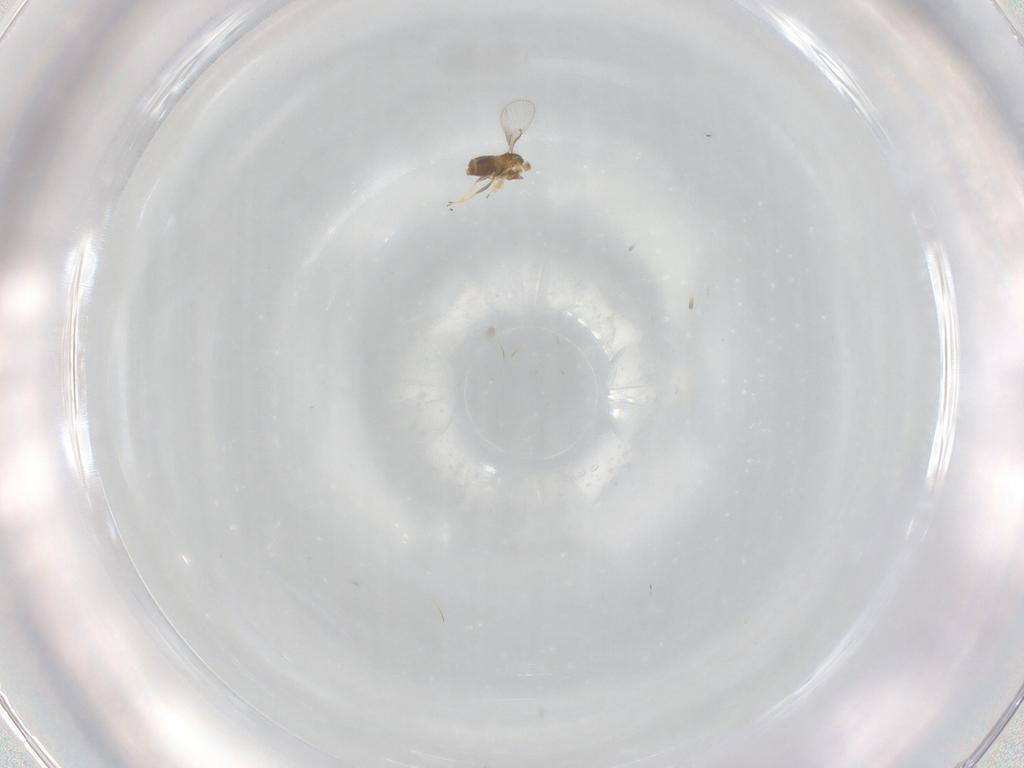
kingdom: Animalia
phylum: Arthropoda
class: Insecta
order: Hymenoptera
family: Trichogrammatidae
